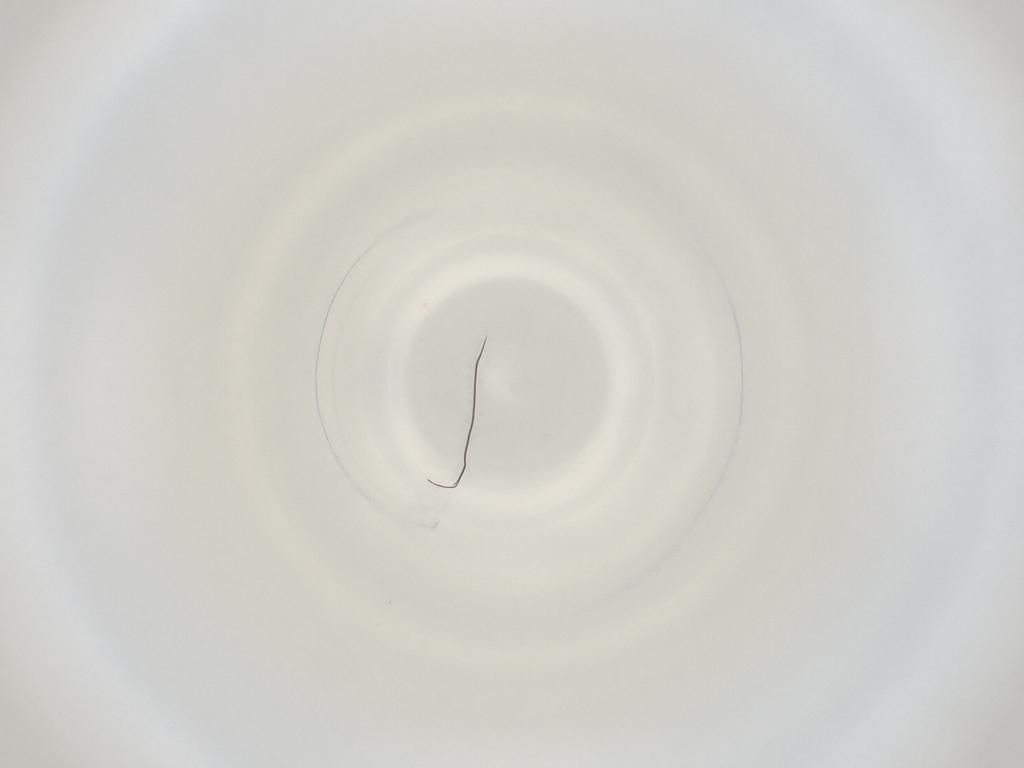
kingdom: Animalia
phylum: Arthropoda
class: Insecta
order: Diptera
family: Cecidomyiidae
